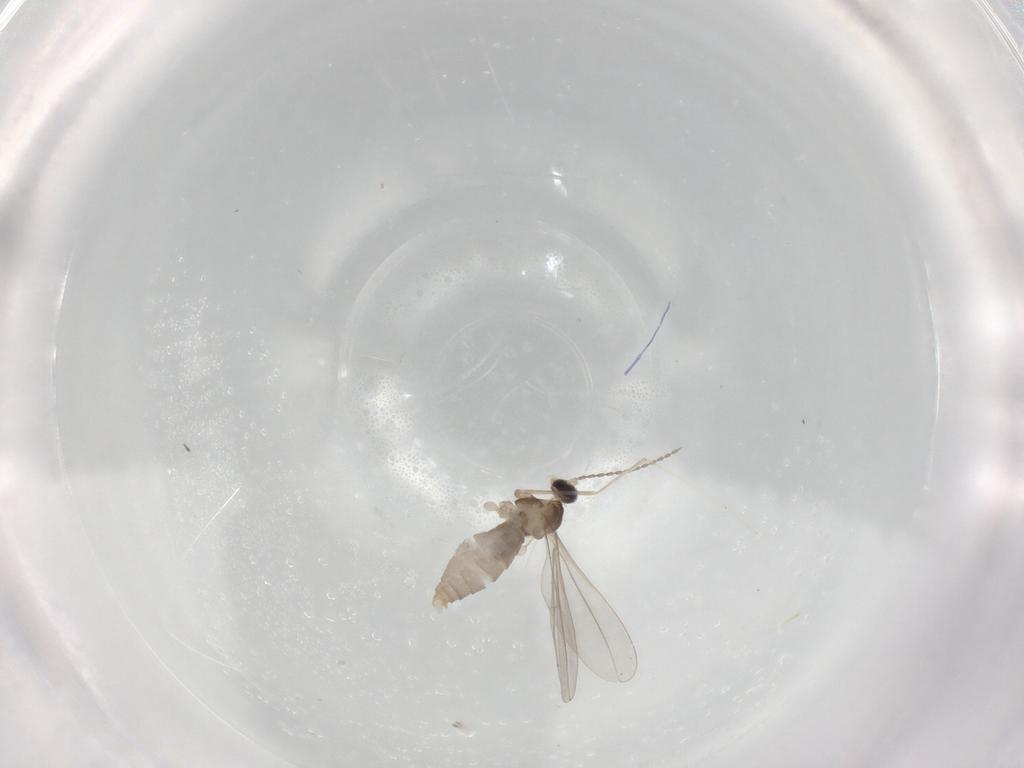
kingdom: Animalia
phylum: Arthropoda
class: Insecta
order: Diptera
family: Cecidomyiidae
